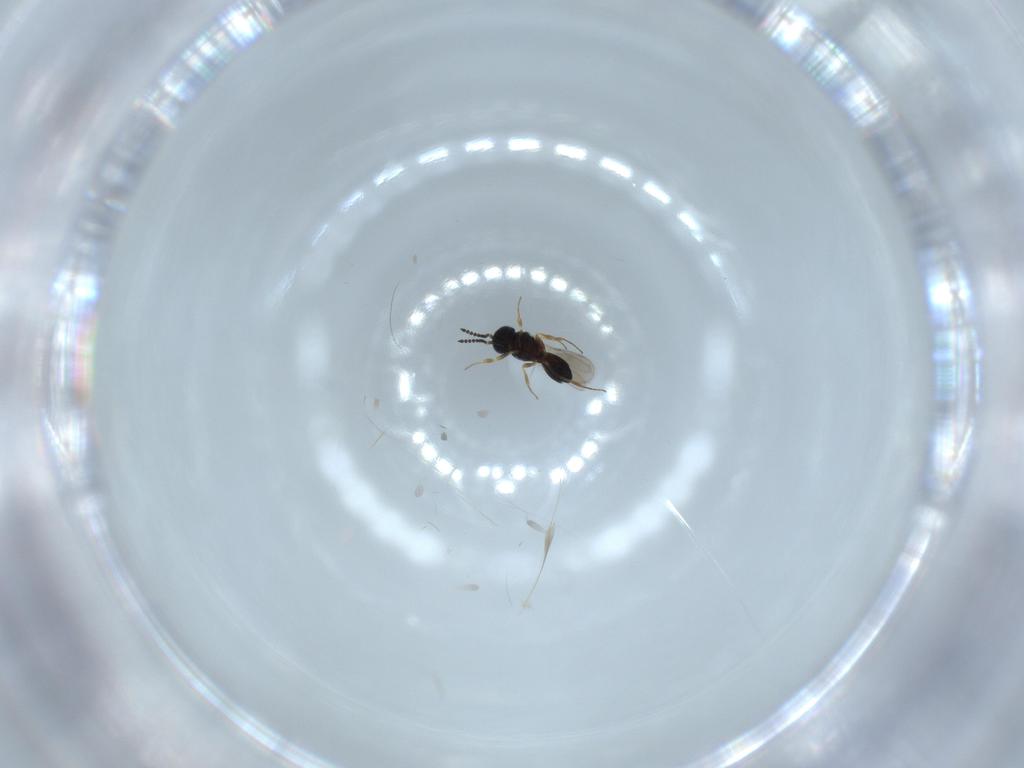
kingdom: Animalia
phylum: Arthropoda
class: Insecta
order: Hymenoptera
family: Scelionidae
